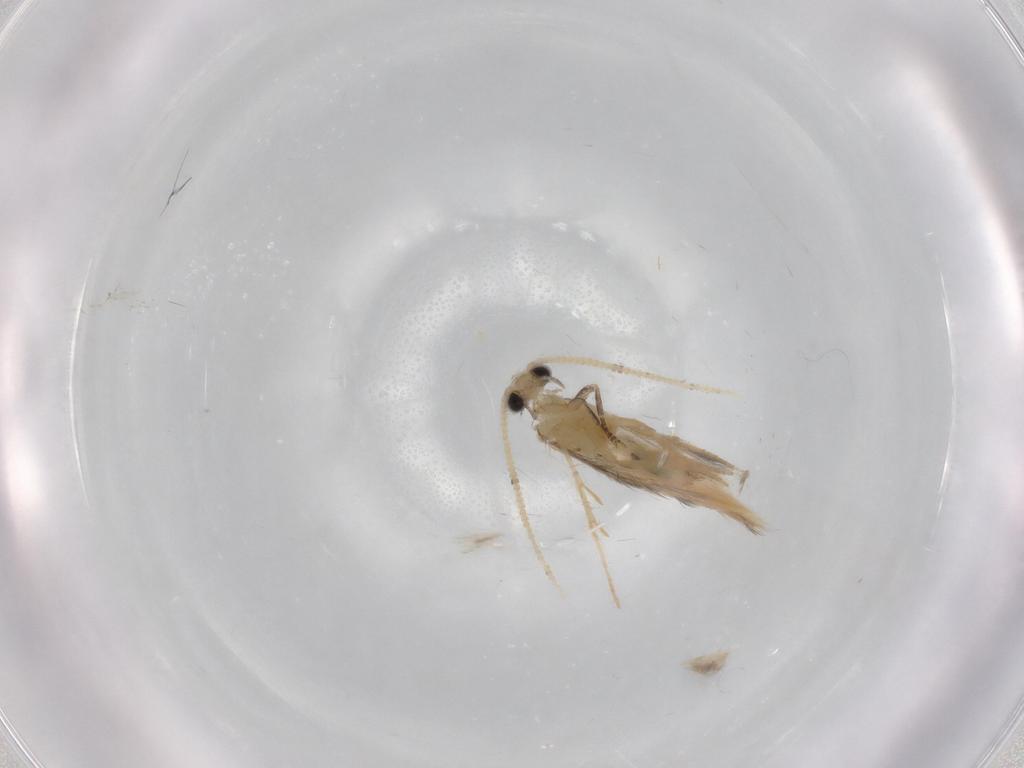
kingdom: Animalia
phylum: Arthropoda
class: Insecta
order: Trichoptera
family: Hydroptilidae
